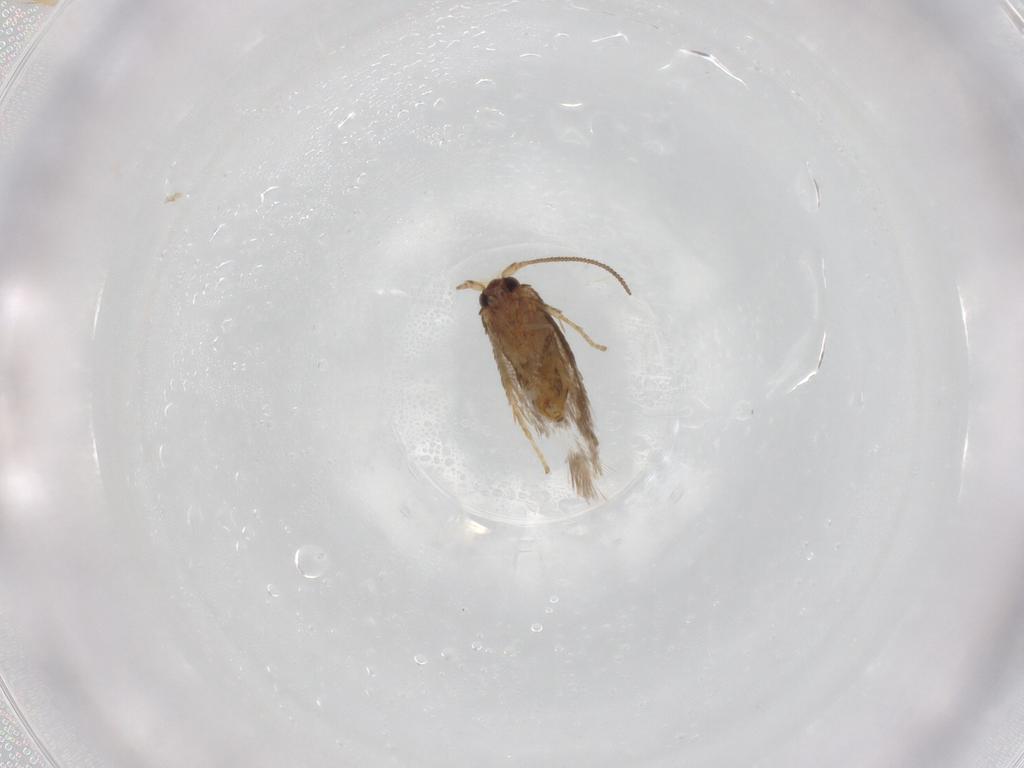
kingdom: Animalia
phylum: Arthropoda
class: Insecta
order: Lepidoptera
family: Nepticulidae
